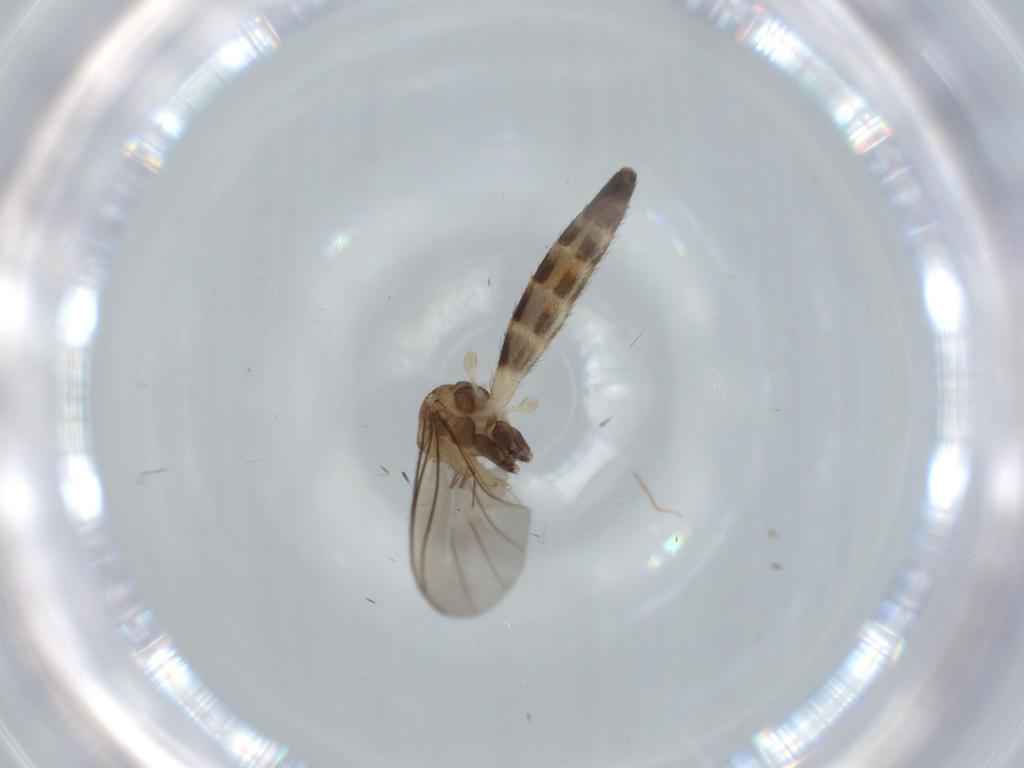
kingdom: Animalia
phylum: Arthropoda
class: Insecta
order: Diptera
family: Keroplatidae
